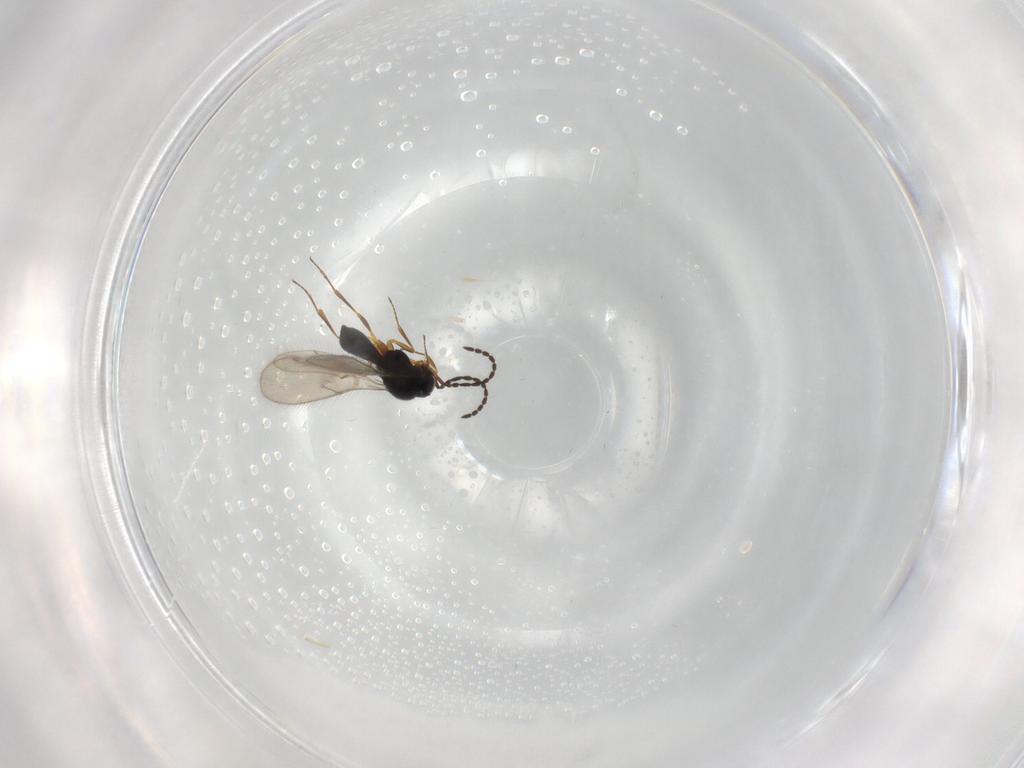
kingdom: Animalia
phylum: Arthropoda
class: Insecta
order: Hymenoptera
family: Scelionidae
